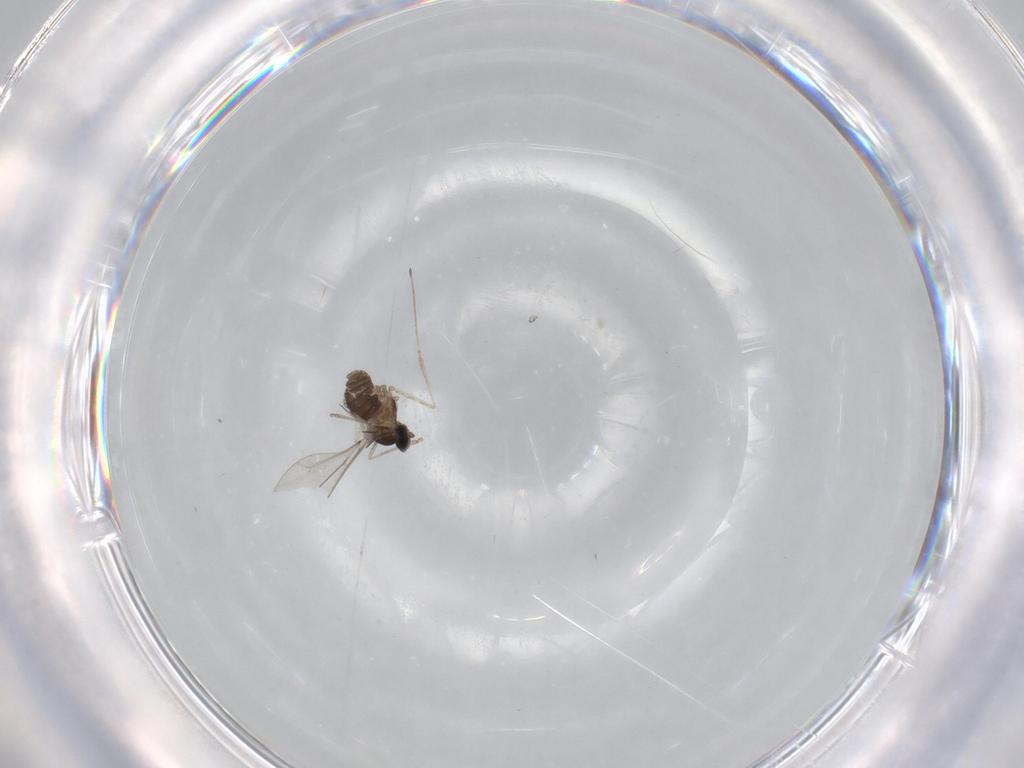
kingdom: Animalia
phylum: Arthropoda
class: Insecta
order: Diptera
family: Cecidomyiidae
